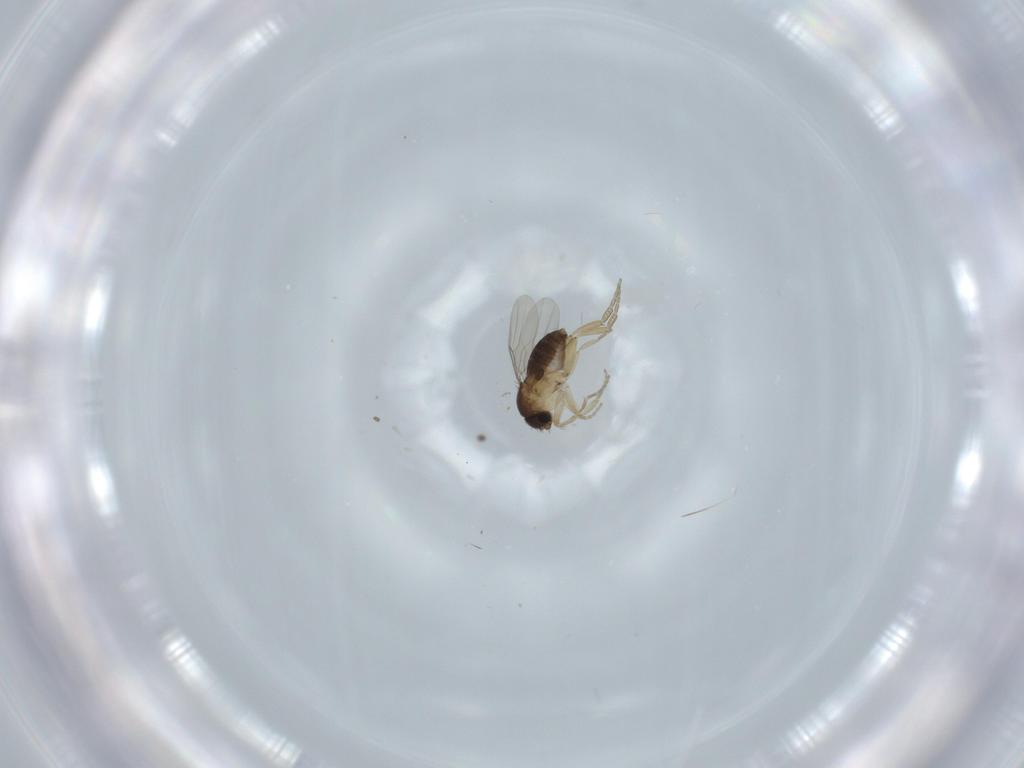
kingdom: Animalia
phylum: Arthropoda
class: Insecta
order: Diptera
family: Phoridae
